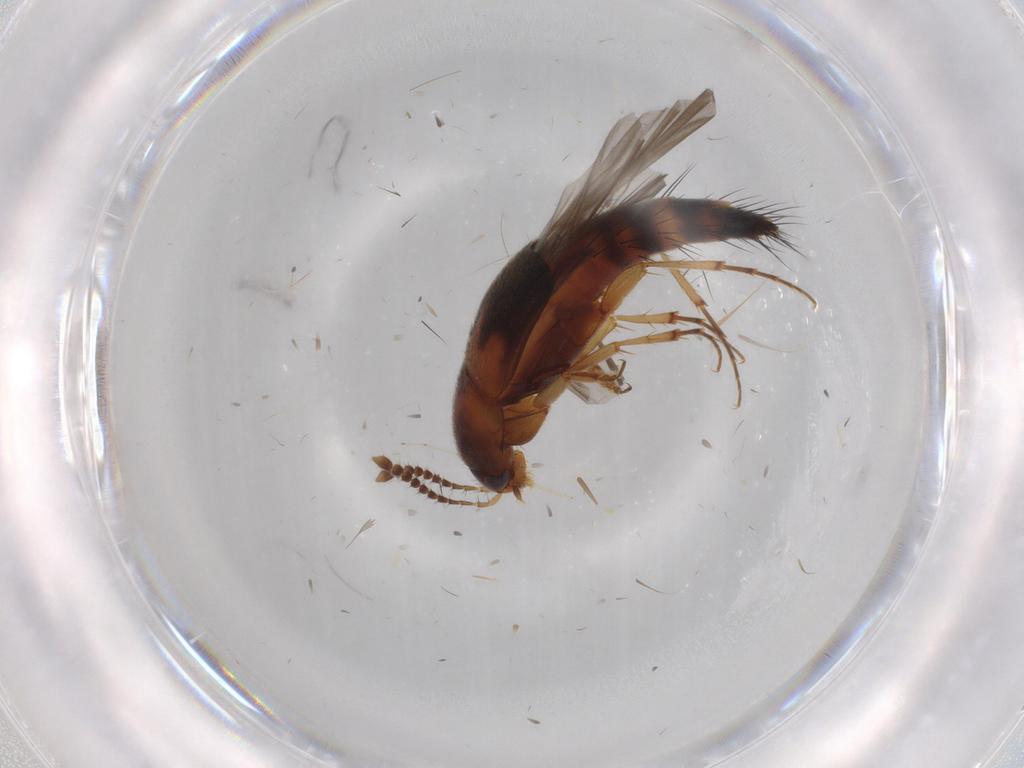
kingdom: Animalia
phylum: Arthropoda
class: Insecta
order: Coleoptera
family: Staphylinidae
